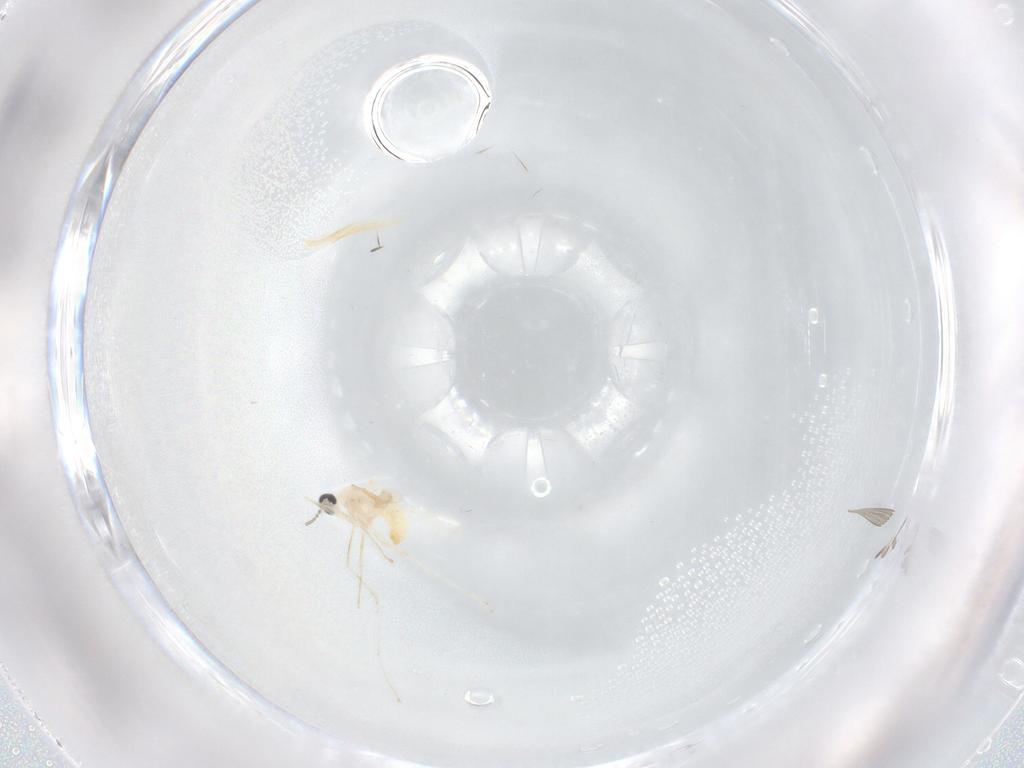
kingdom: Animalia
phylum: Arthropoda
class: Insecta
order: Diptera
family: Cecidomyiidae
